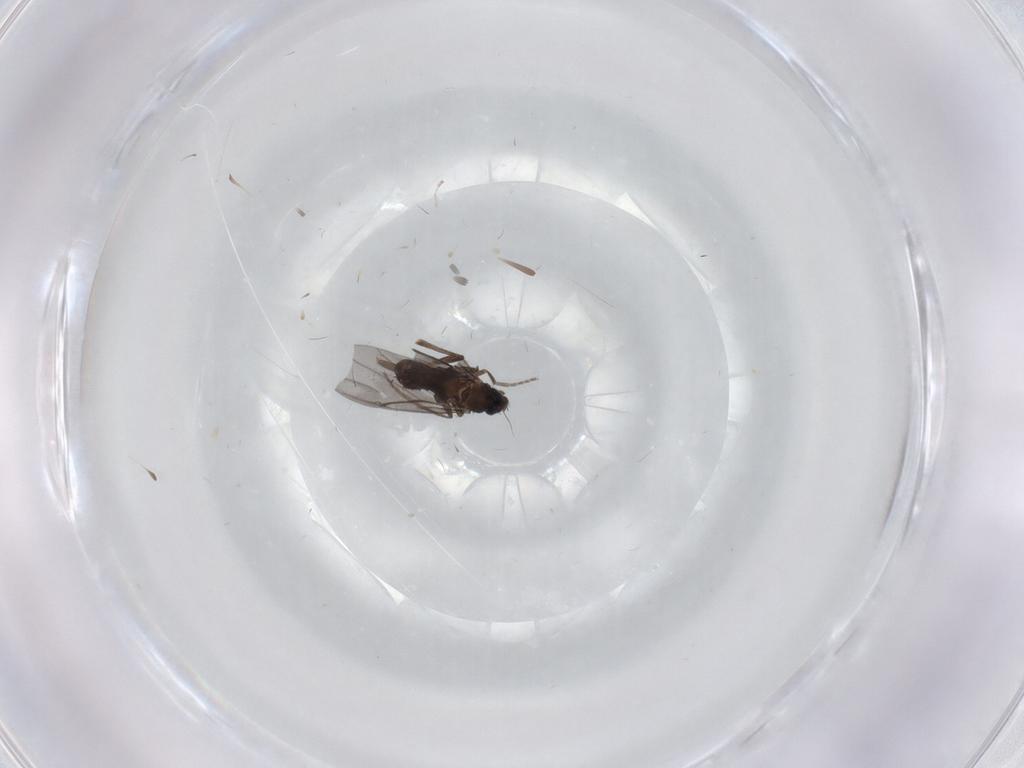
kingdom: Animalia
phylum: Arthropoda
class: Insecta
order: Diptera
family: Phoridae
